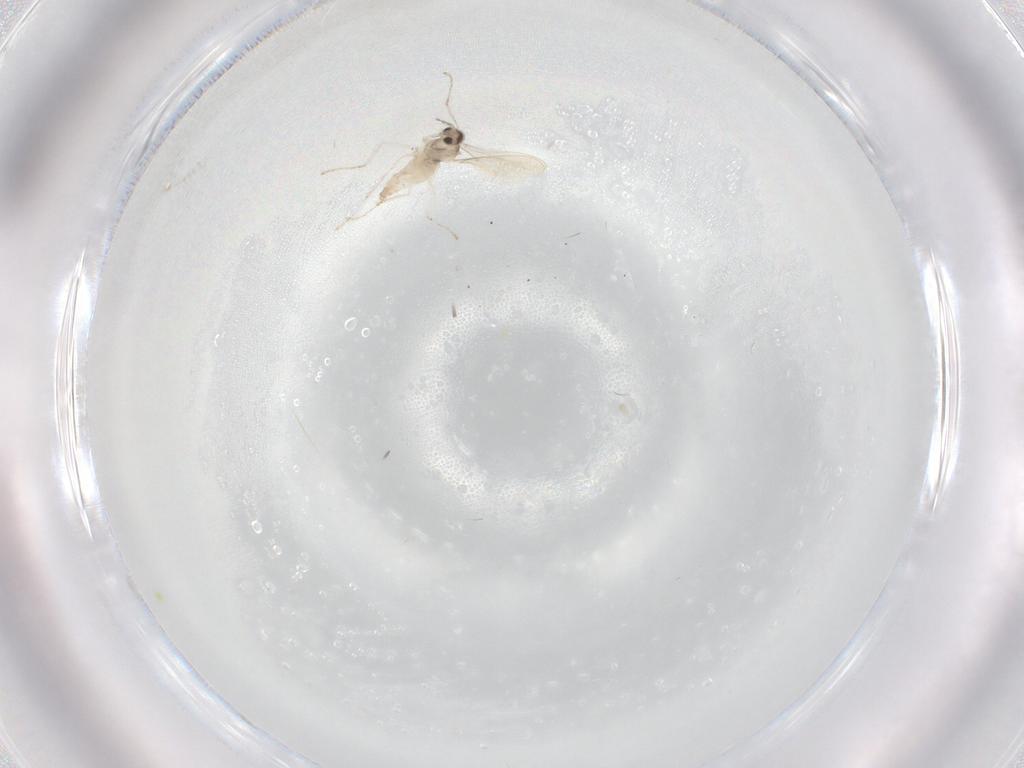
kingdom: Animalia
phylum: Arthropoda
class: Insecta
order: Diptera
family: Cecidomyiidae
